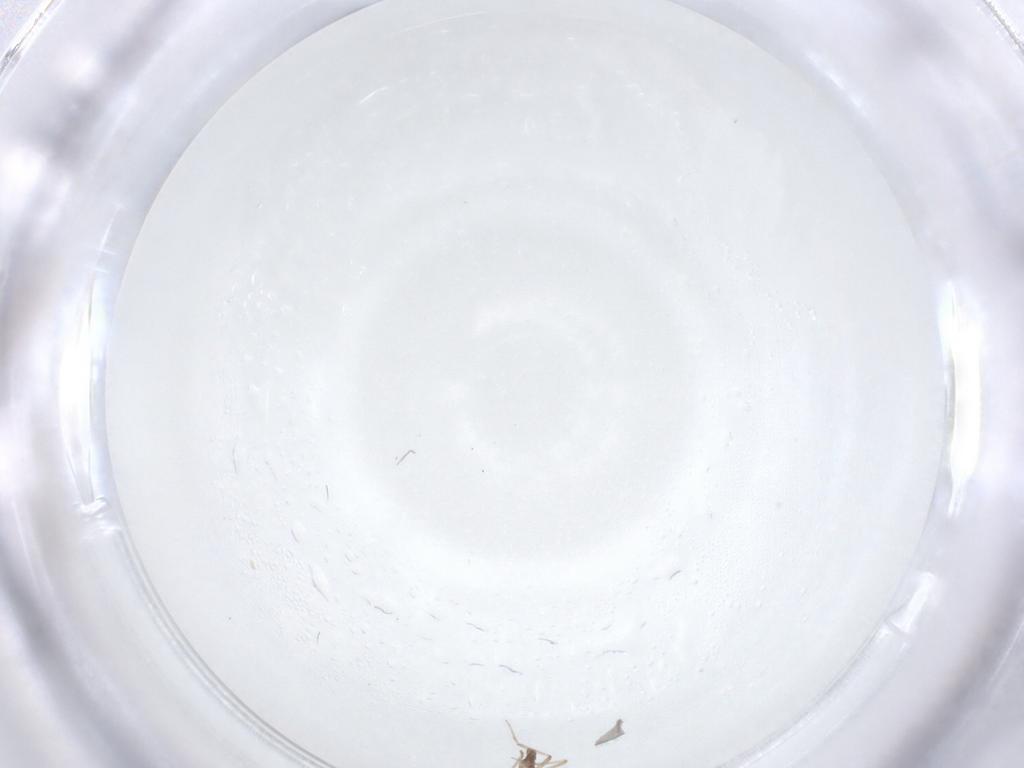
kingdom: Animalia
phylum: Arthropoda
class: Insecta
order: Diptera
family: Ceratopogonidae
